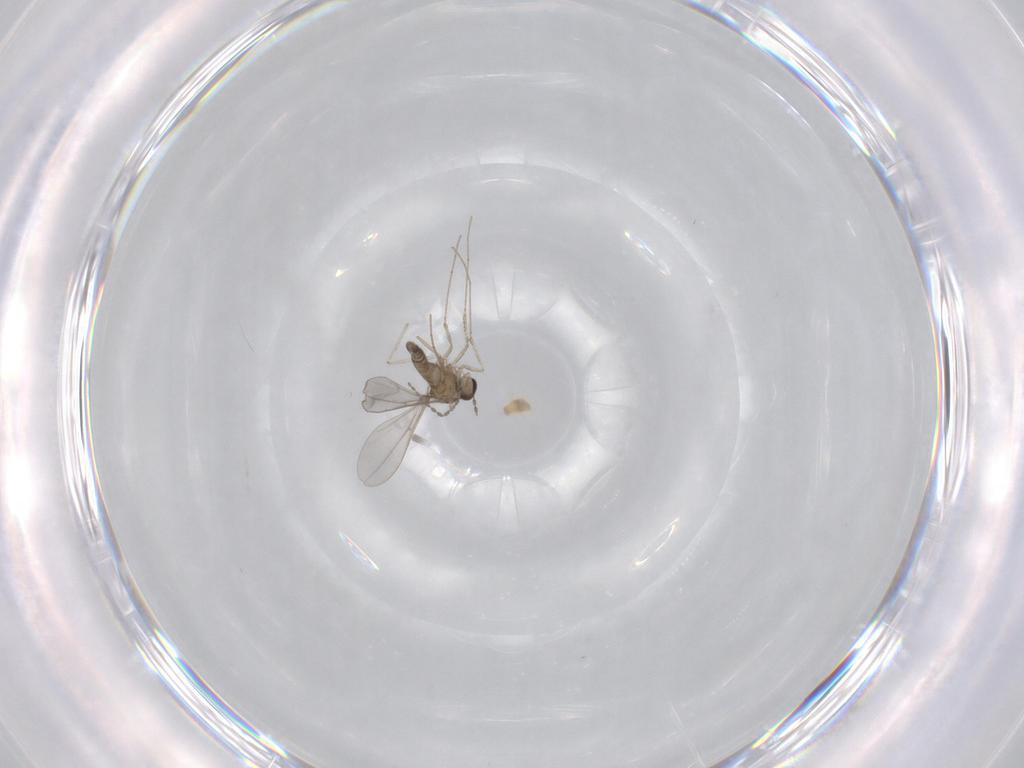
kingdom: Animalia
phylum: Arthropoda
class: Insecta
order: Diptera
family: Cecidomyiidae
